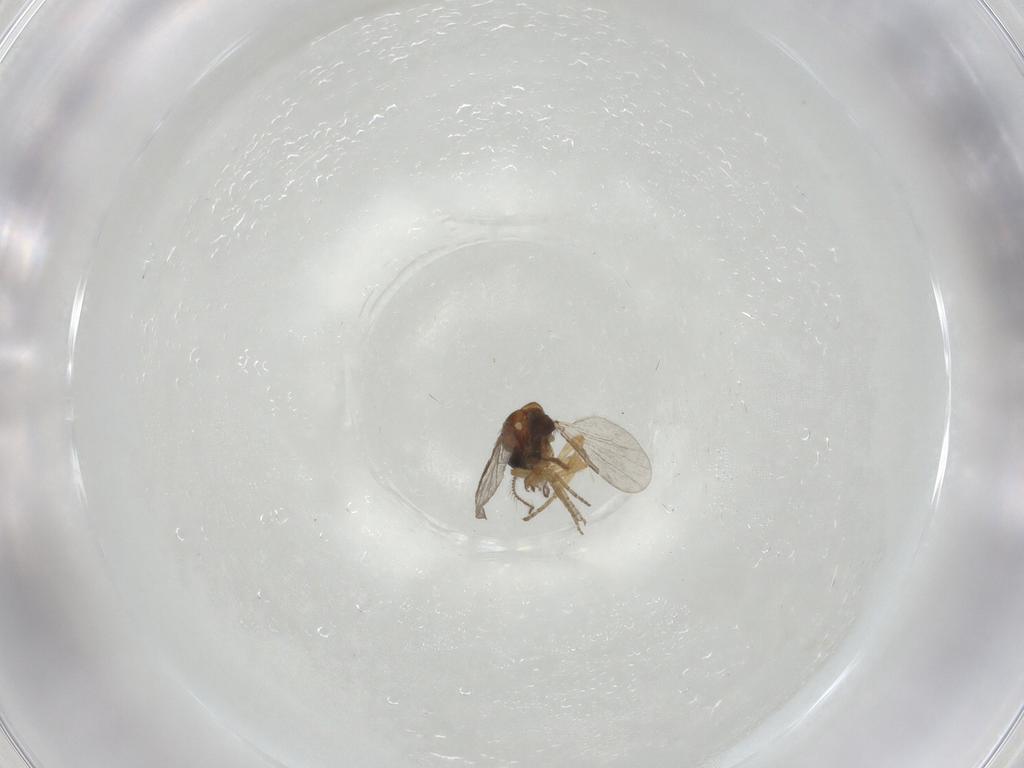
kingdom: Animalia
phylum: Arthropoda
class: Insecta
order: Diptera
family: Ceratopogonidae
